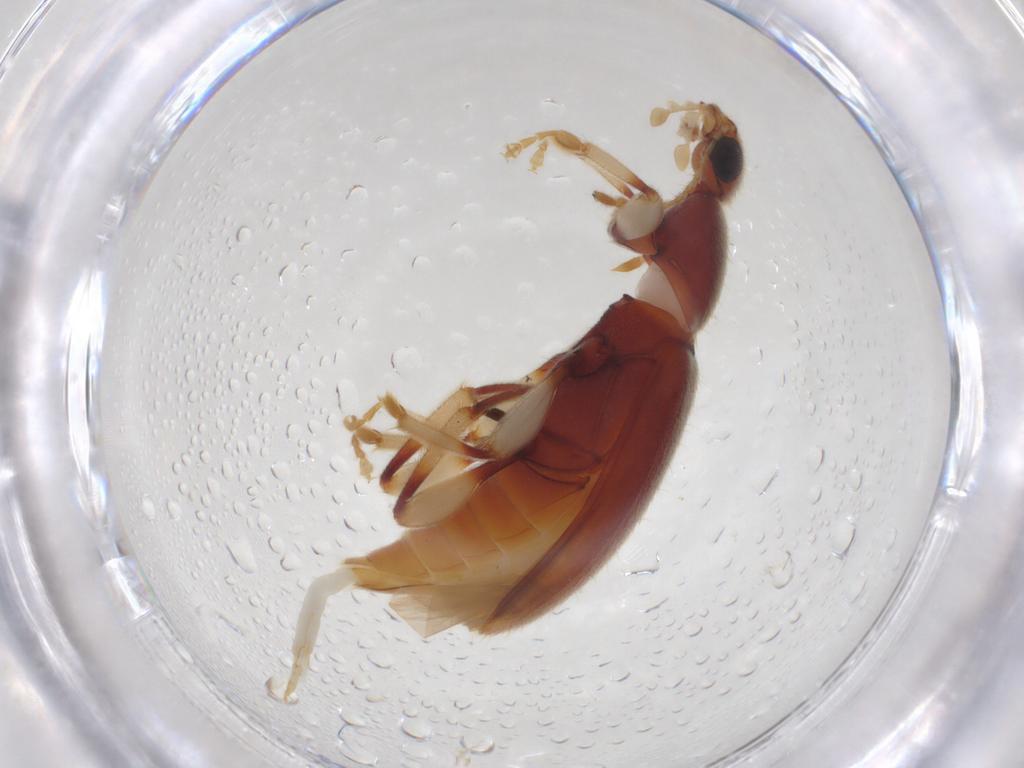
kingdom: Animalia
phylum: Arthropoda
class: Insecta
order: Coleoptera
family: Anthicidae
